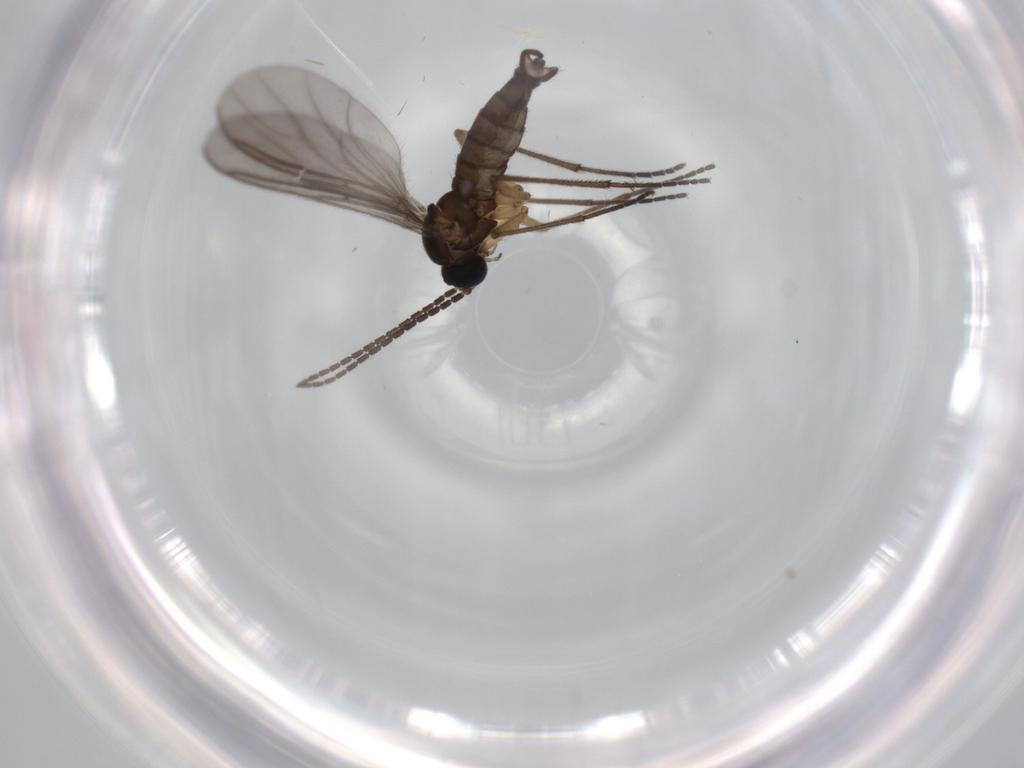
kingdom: Animalia
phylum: Arthropoda
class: Insecta
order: Diptera
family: Sciaridae
